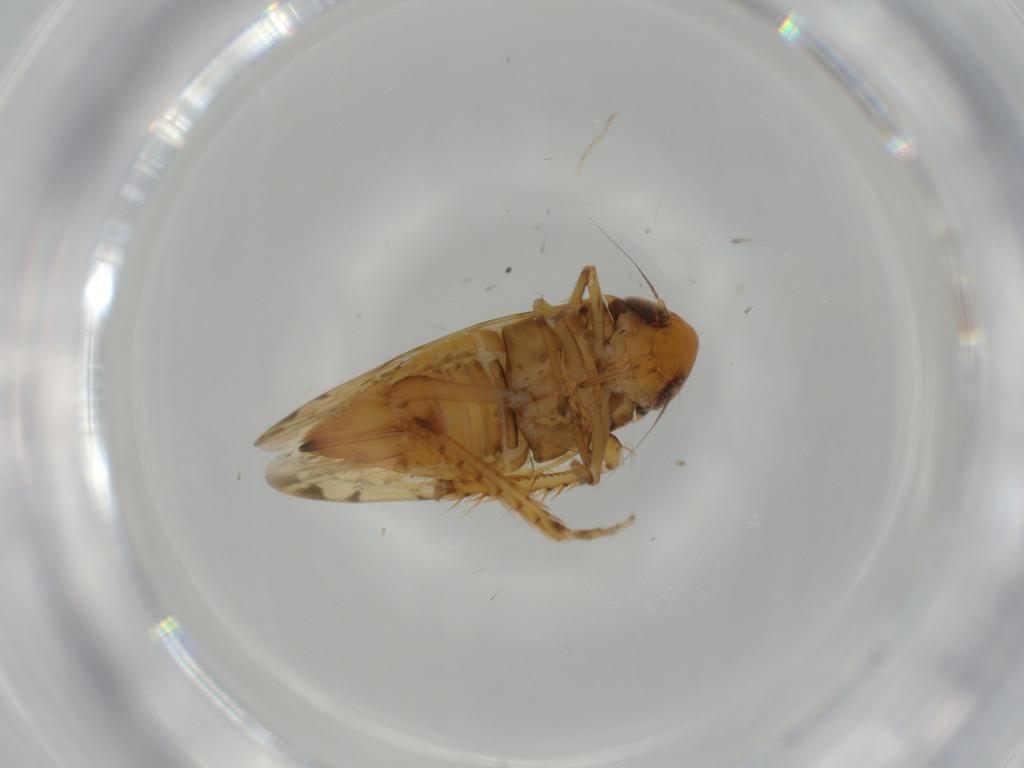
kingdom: Animalia
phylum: Arthropoda
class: Insecta
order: Hemiptera
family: Cicadellidae
